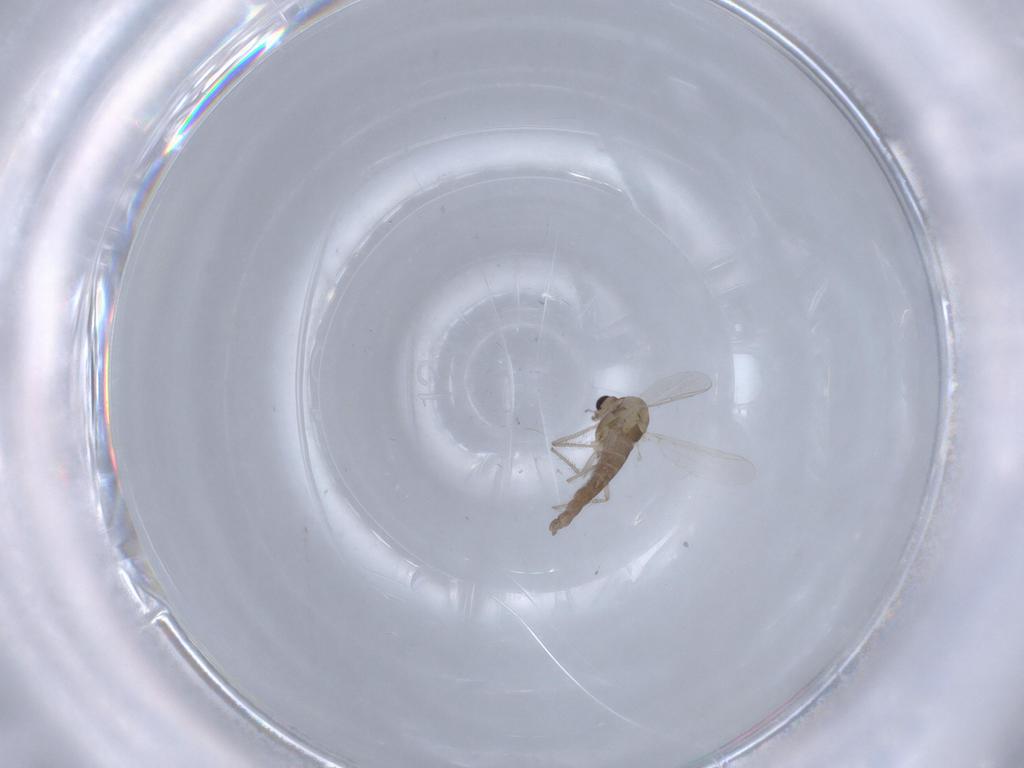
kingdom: Animalia
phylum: Arthropoda
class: Insecta
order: Diptera
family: Chironomidae
